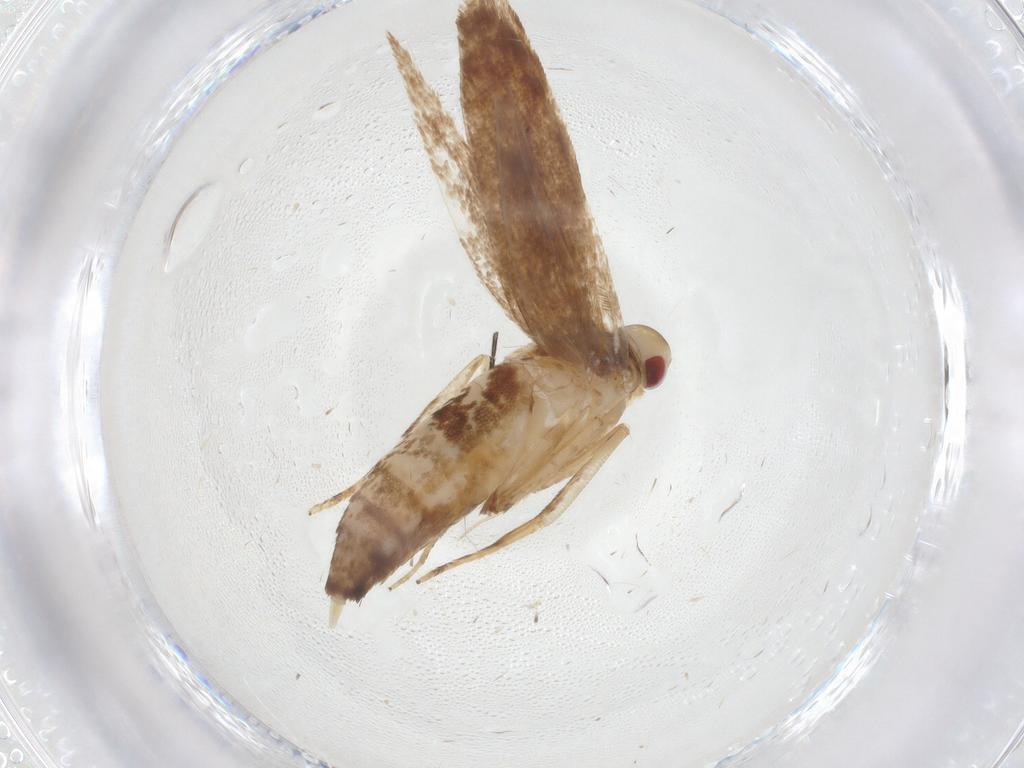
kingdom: Animalia
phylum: Arthropoda
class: Insecta
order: Lepidoptera
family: Cosmopterigidae
